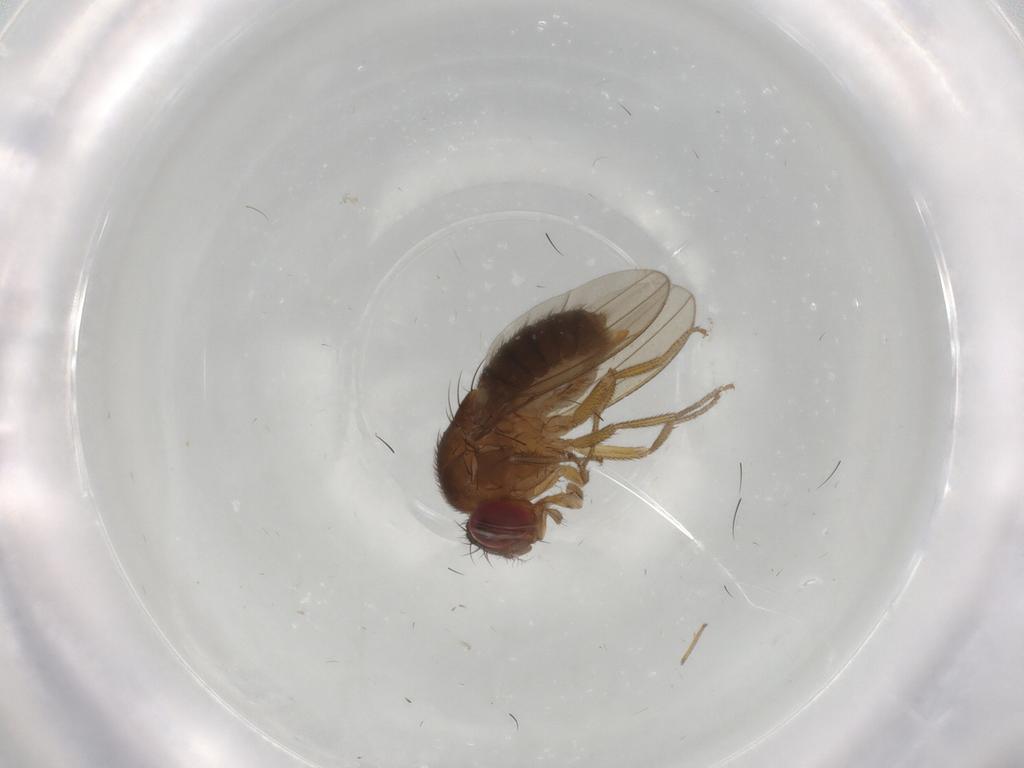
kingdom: Animalia
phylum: Arthropoda
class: Insecta
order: Diptera
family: Drosophilidae
